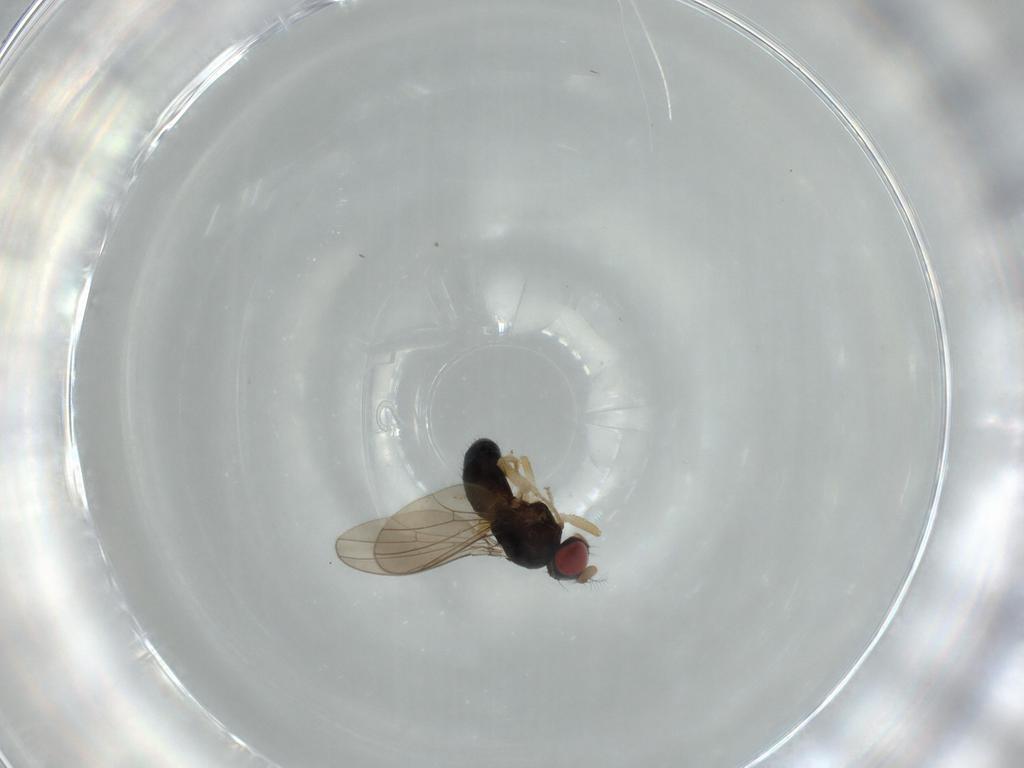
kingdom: Animalia
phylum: Arthropoda
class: Insecta
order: Diptera
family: Drosophilidae
